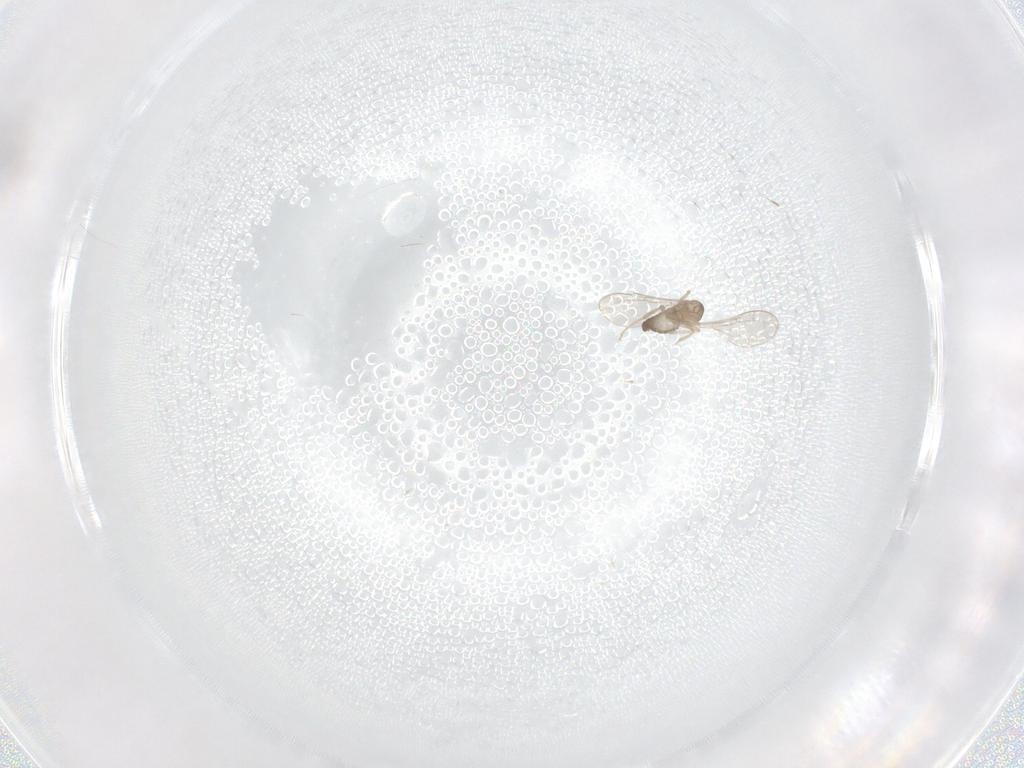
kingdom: Animalia
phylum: Arthropoda
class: Insecta
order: Diptera
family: Cecidomyiidae
